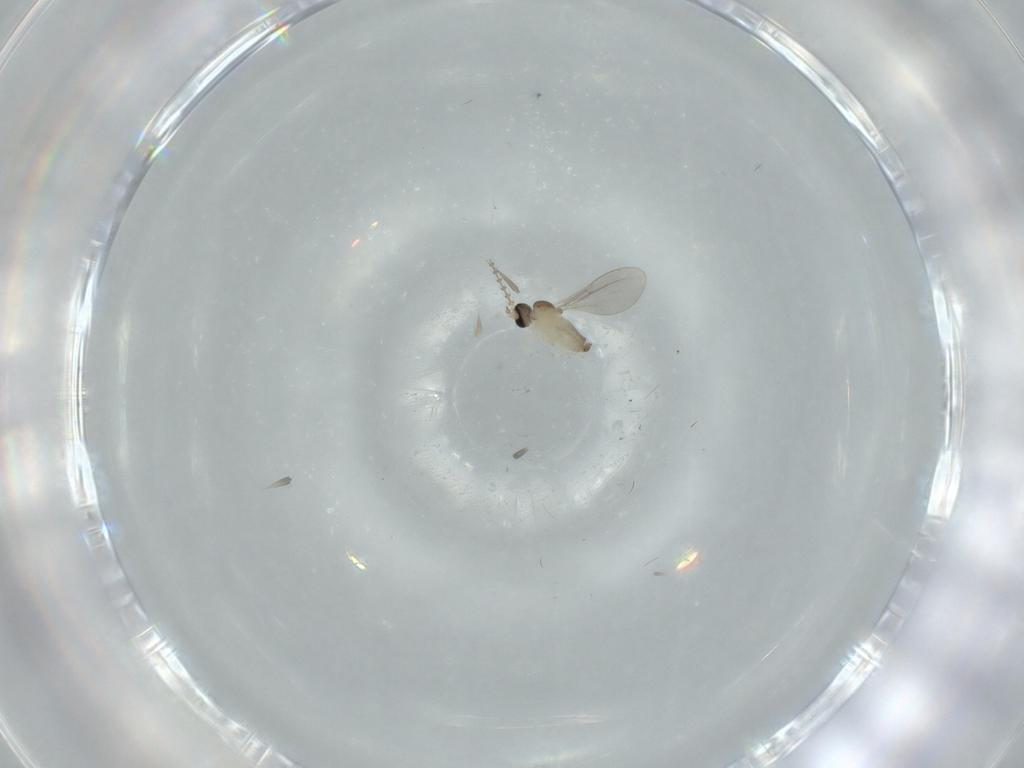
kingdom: Animalia
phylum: Arthropoda
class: Insecta
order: Diptera
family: Cecidomyiidae
